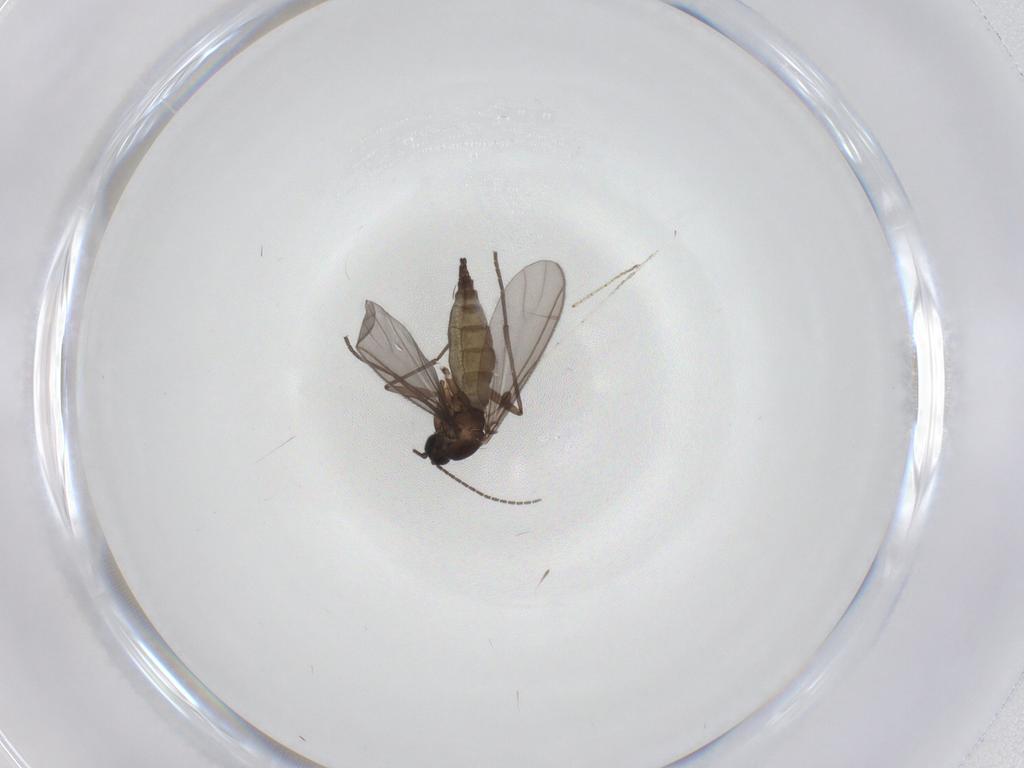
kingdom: Animalia
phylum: Arthropoda
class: Insecta
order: Diptera
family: Sciaridae
